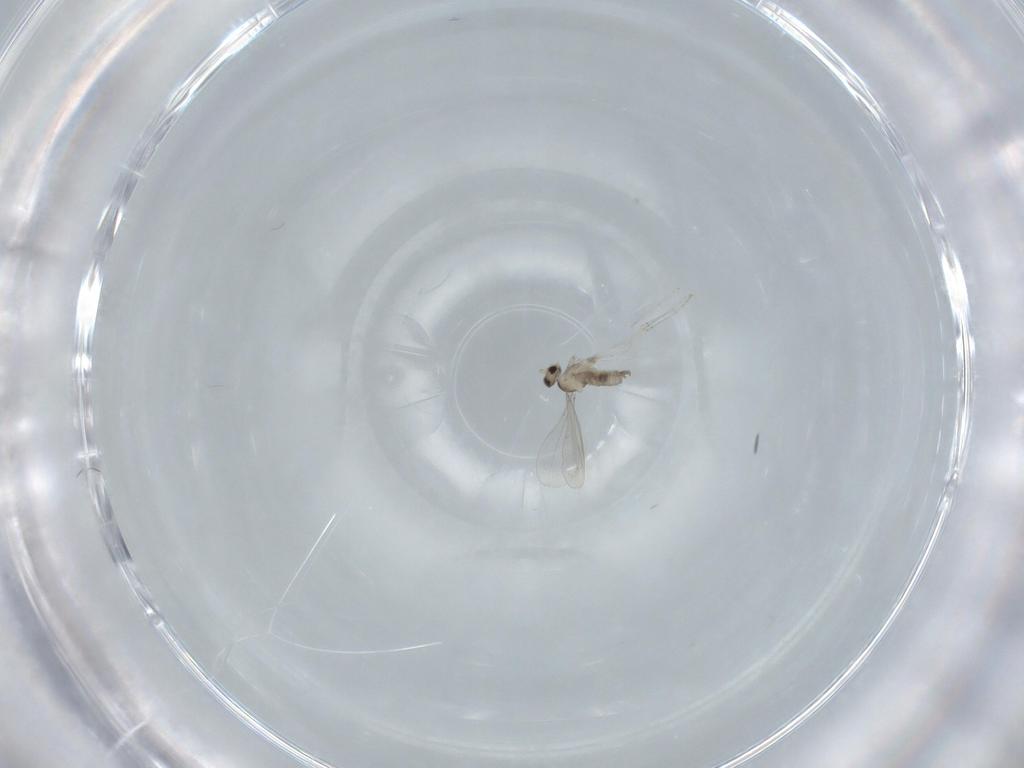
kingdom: Animalia
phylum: Arthropoda
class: Insecta
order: Diptera
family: Cecidomyiidae
